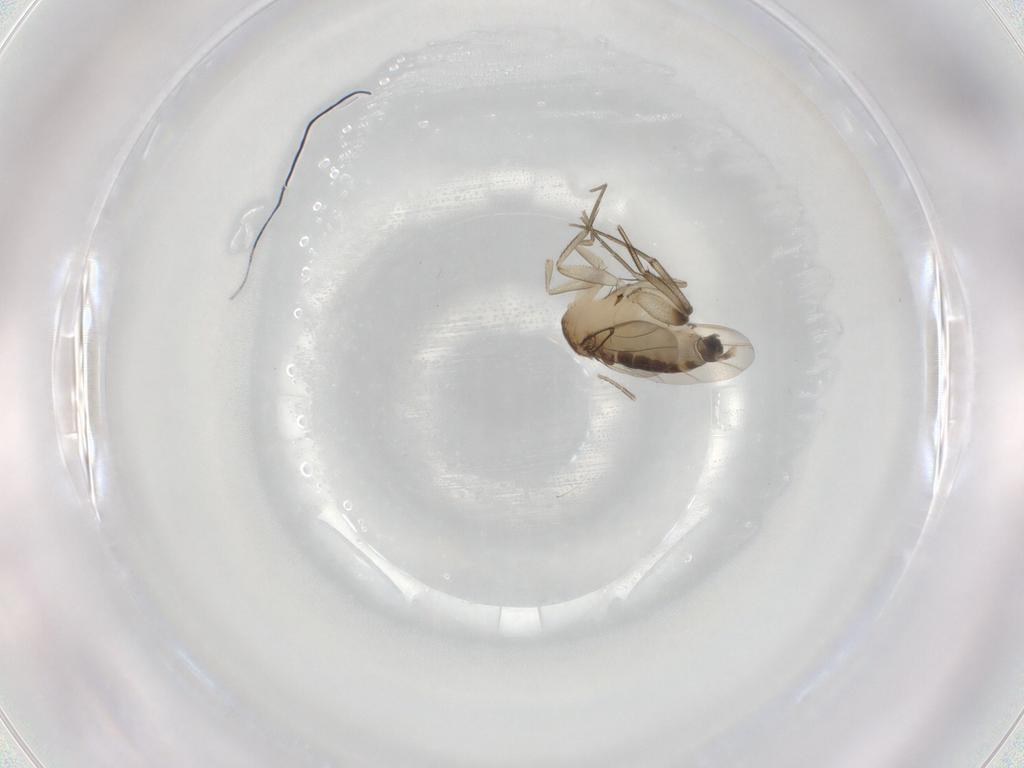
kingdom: Animalia
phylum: Arthropoda
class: Insecta
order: Diptera
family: Phoridae
